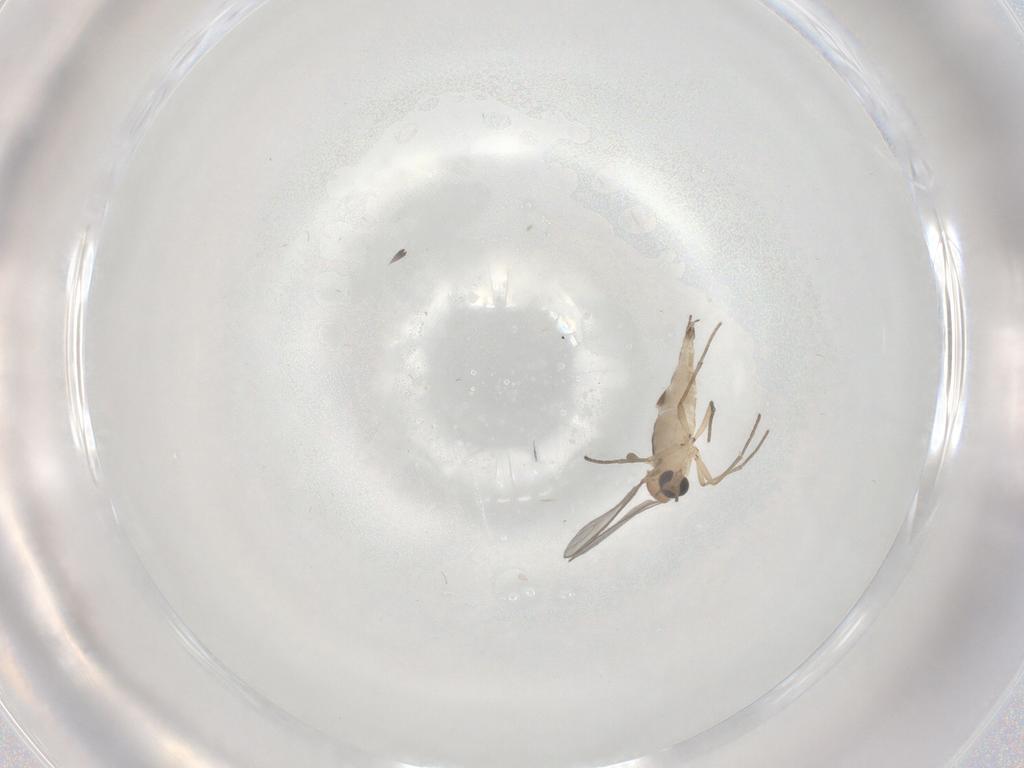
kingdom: Animalia
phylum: Arthropoda
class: Insecta
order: Diptera
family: Sciaridae
